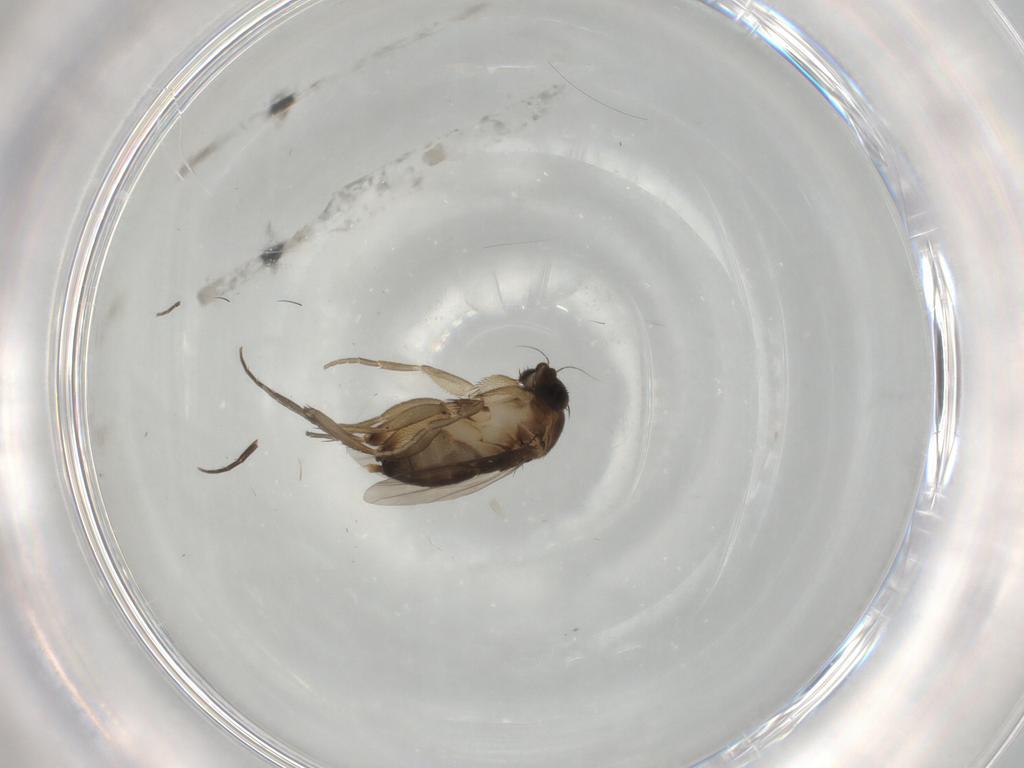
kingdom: Animalia
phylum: Arthropoda
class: Insecta
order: Diptera
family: Phoridae
